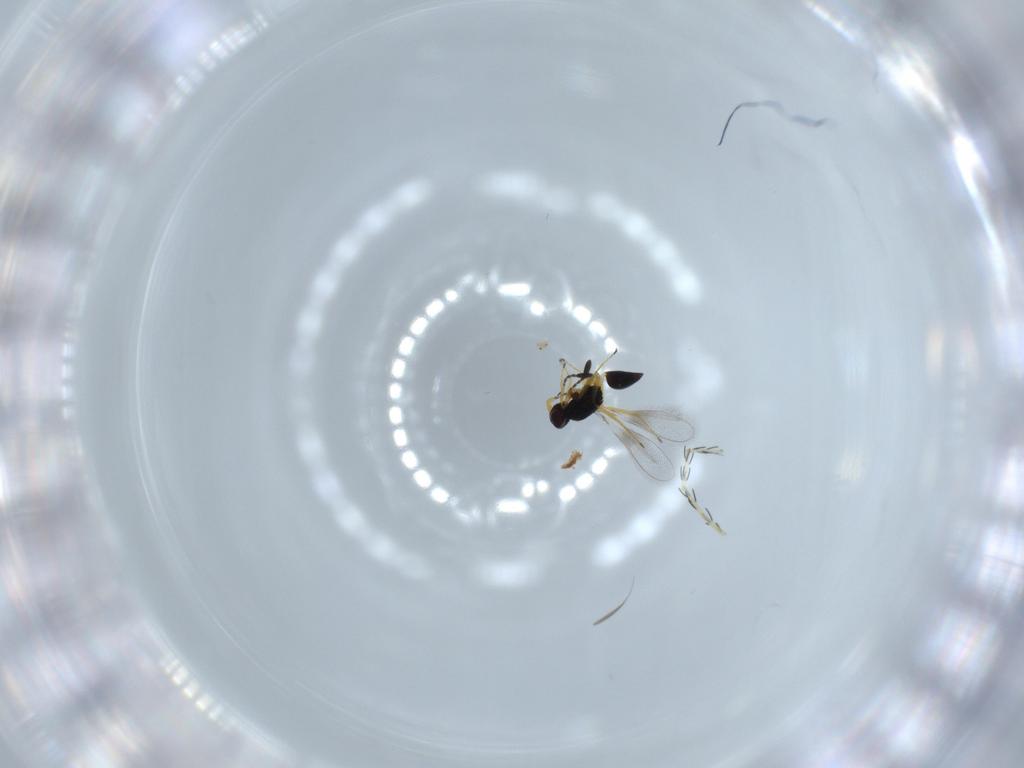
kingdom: Animalia
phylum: Arthropoda
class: Insecta
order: Hymenoptera
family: Mymaridae
